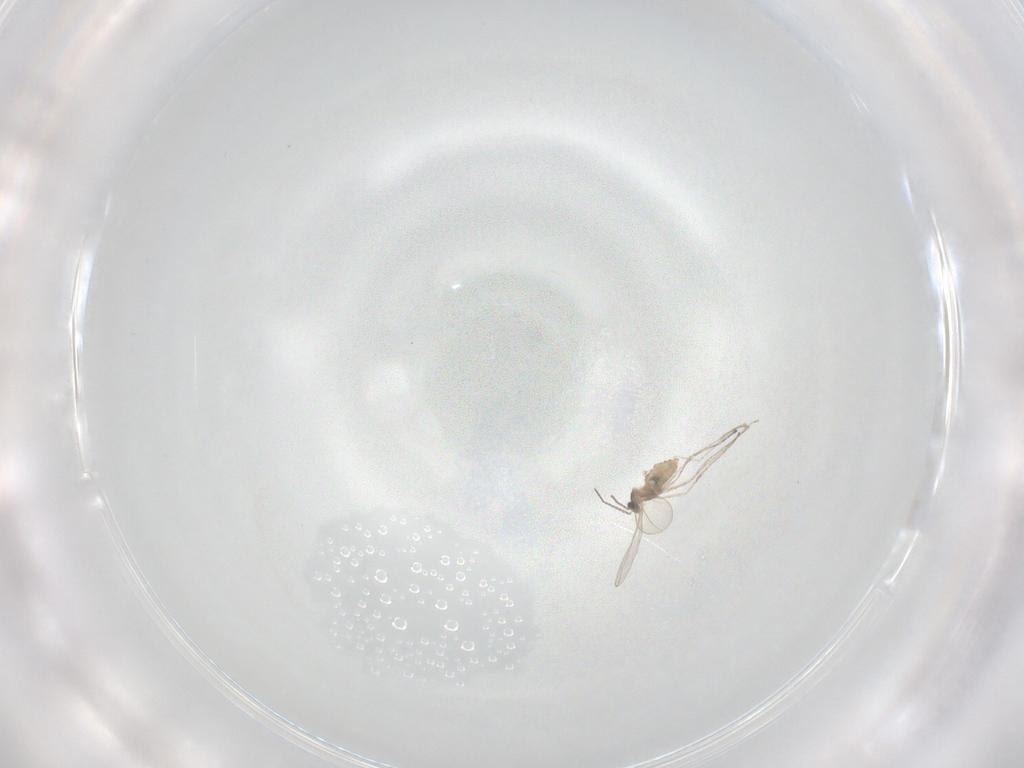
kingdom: Animalia
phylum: Arthropoda
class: Insecta
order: Diptera
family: Cecidomyiidae
